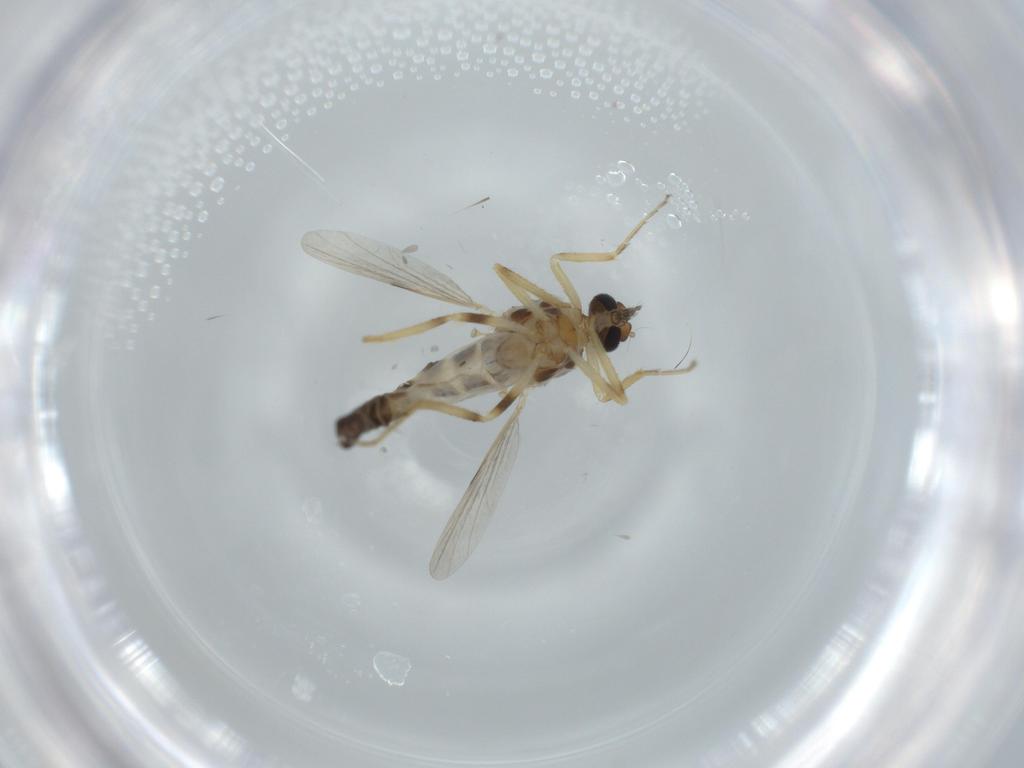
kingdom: Animalia
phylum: Arthropoda
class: Insecta
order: Diptera
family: Ceratopogonidae
